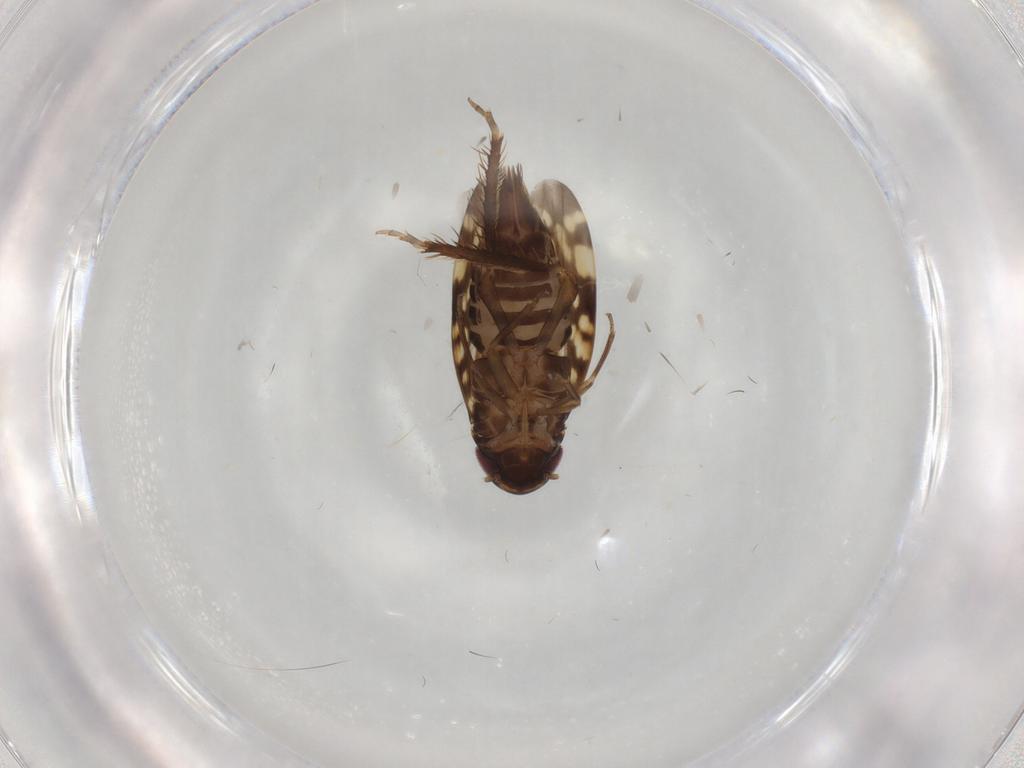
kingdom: Animalia
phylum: Arthropoda
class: Insecta
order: Hemiptera
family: Cicadellidae
